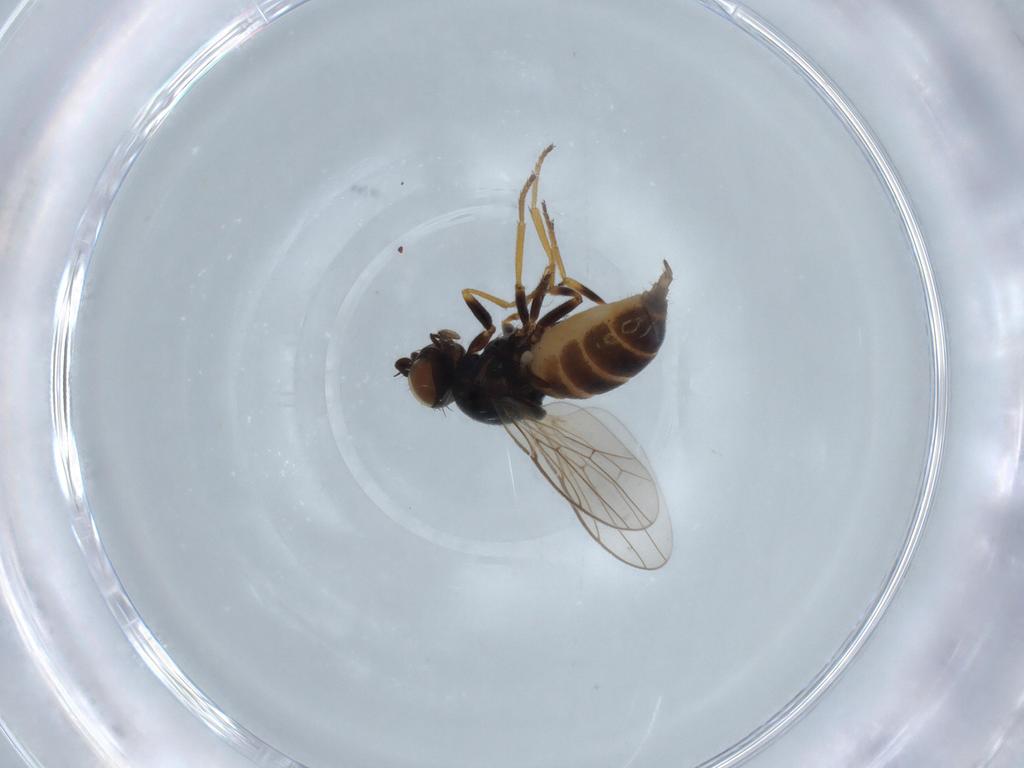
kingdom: Animalia
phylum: Arthropoda
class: Insecta
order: Diptera
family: Chloropidae
